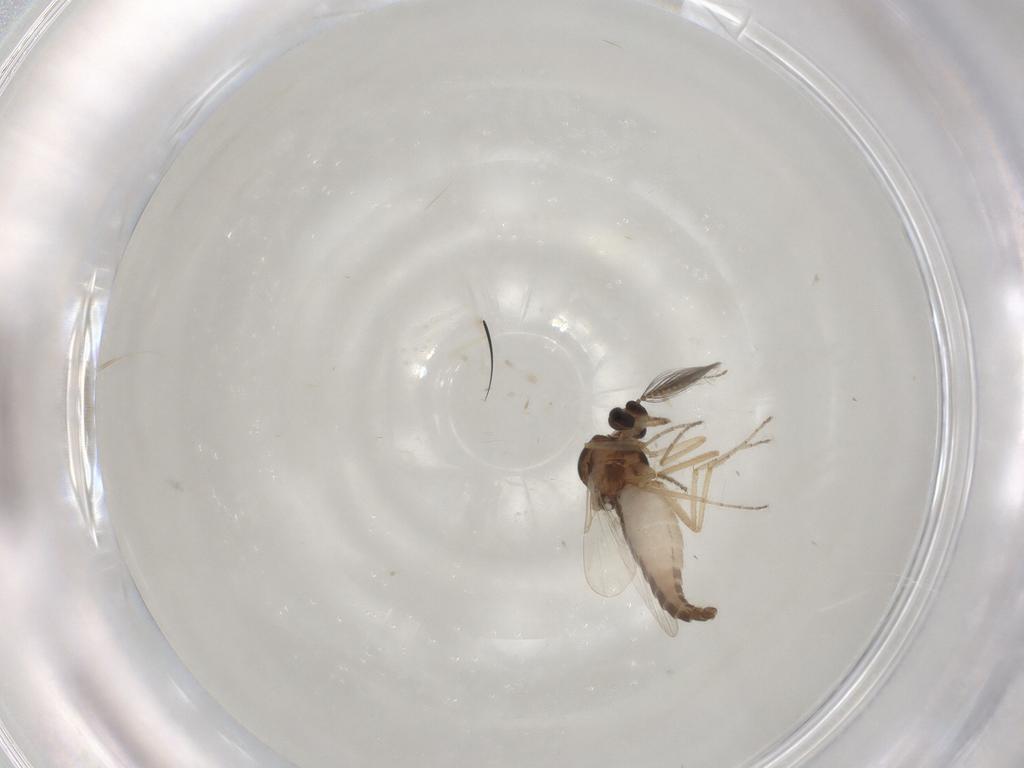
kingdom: Animalia
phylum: Arthropoda
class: Insecta
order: Diptera
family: Ceratopogonidae
